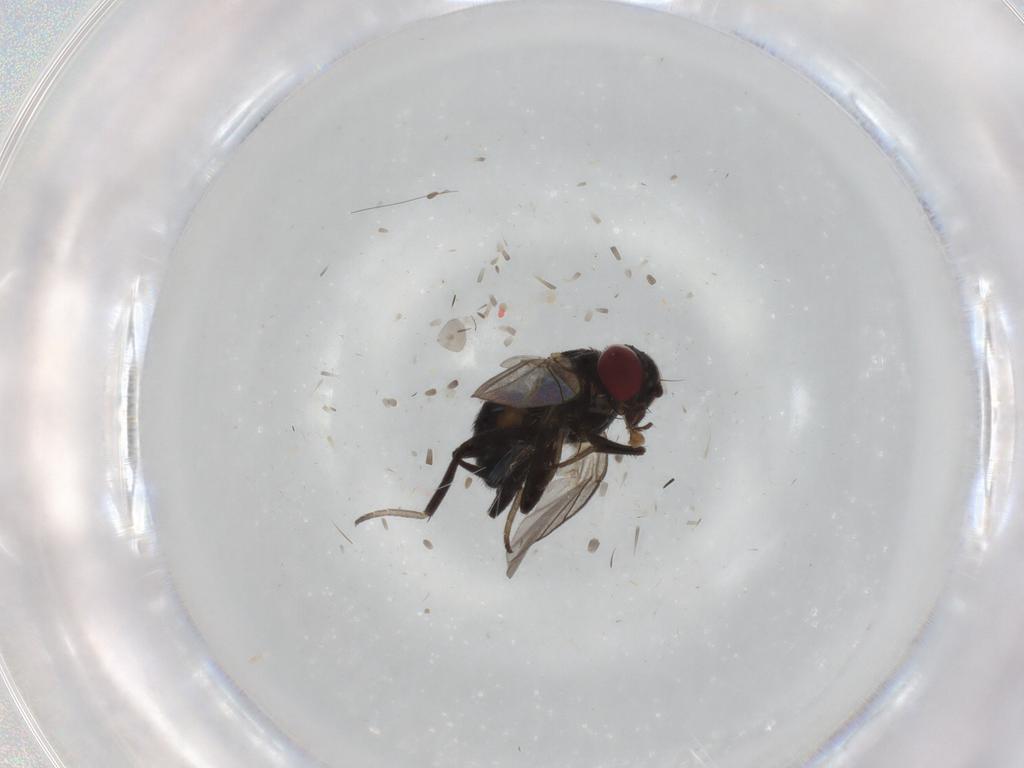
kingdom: Animalia
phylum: Arthropoda
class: Insecta
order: Diptera
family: Cecidomyiidae
